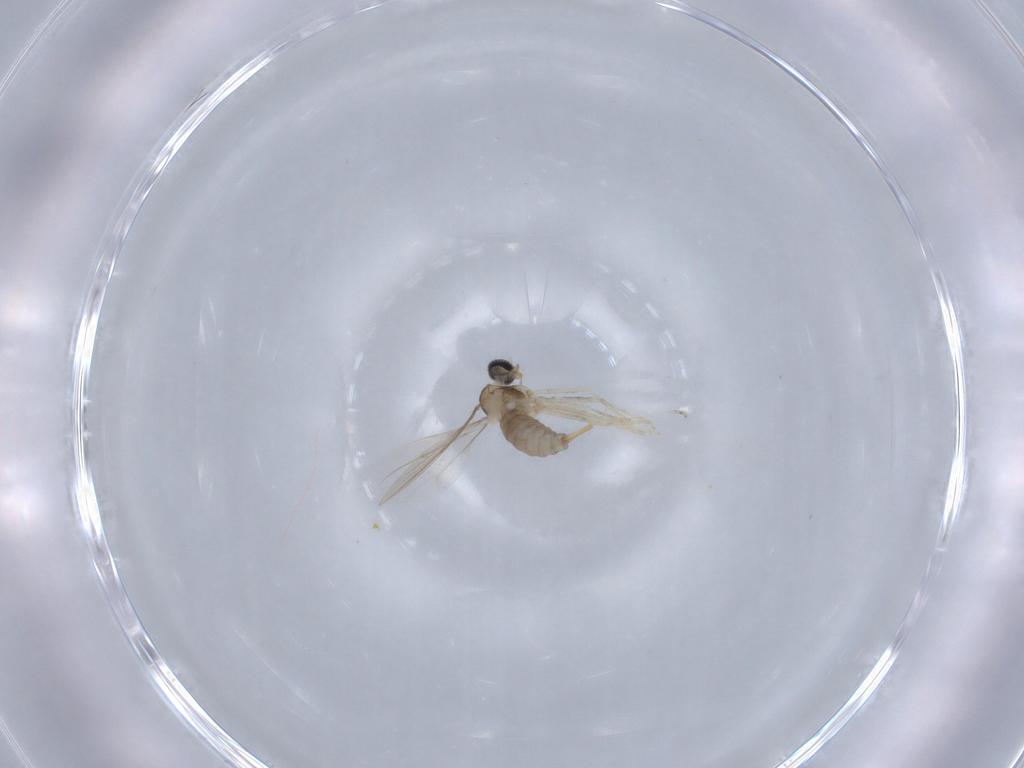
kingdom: Animalia
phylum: Arthropoda
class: Insecta
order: Diptera
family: Cecidomyiidae
